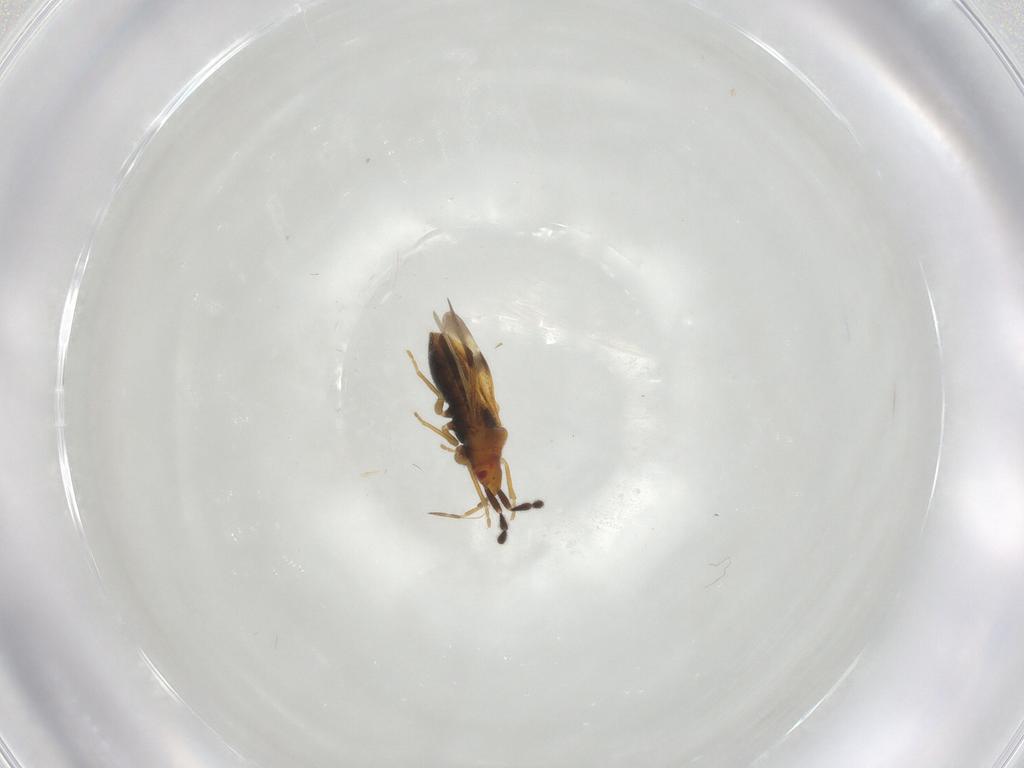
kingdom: Animalia
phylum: Arthropoda
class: Insecta
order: Hemiptera
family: Rhyparochromidae
